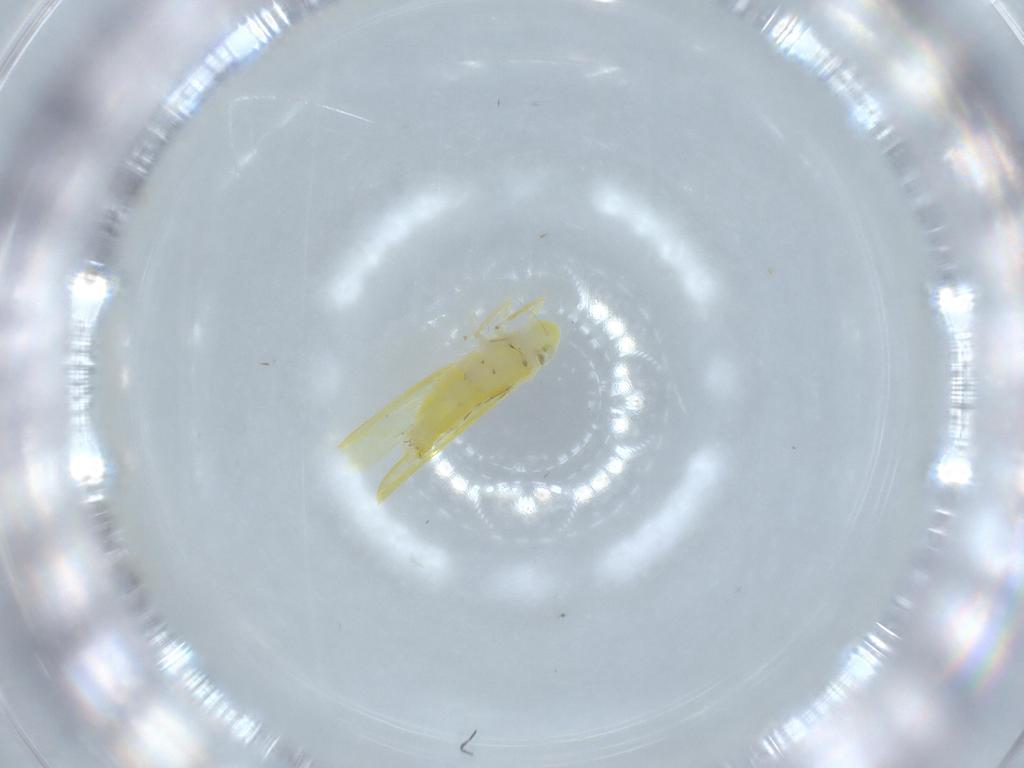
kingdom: Animalia
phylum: Arthropoda
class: Insecta
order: Hemiptera
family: Cicadellidae
